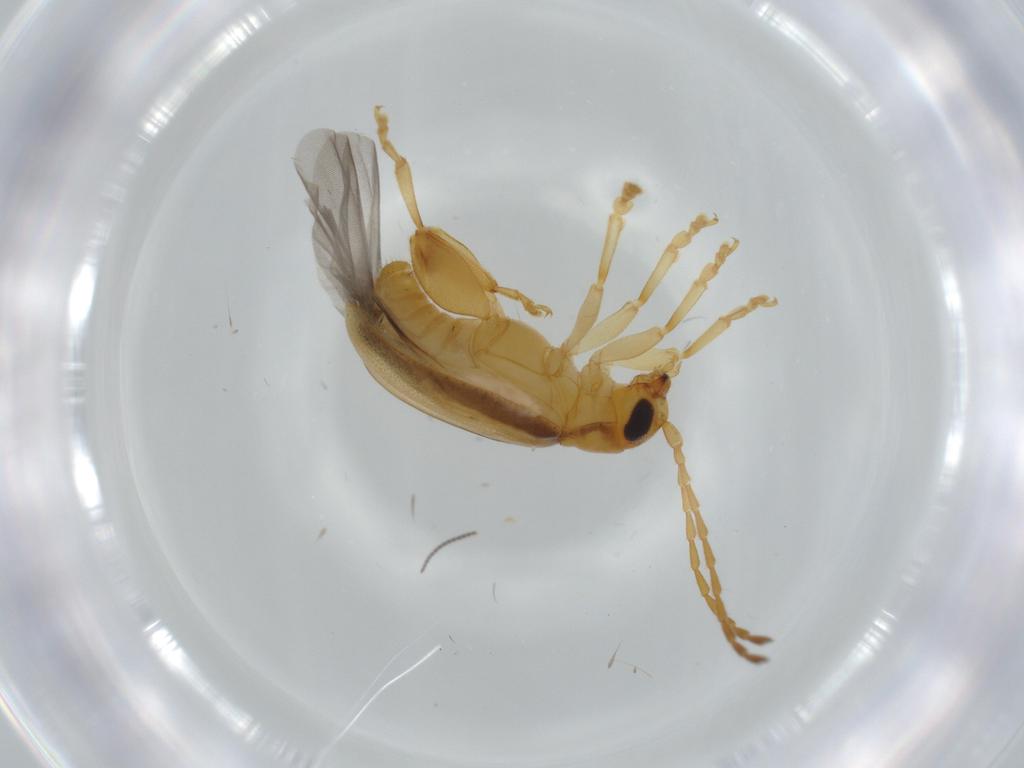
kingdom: Animalia
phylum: Arthropoda
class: Insecta
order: Coleoptera
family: Chrysomelidae
